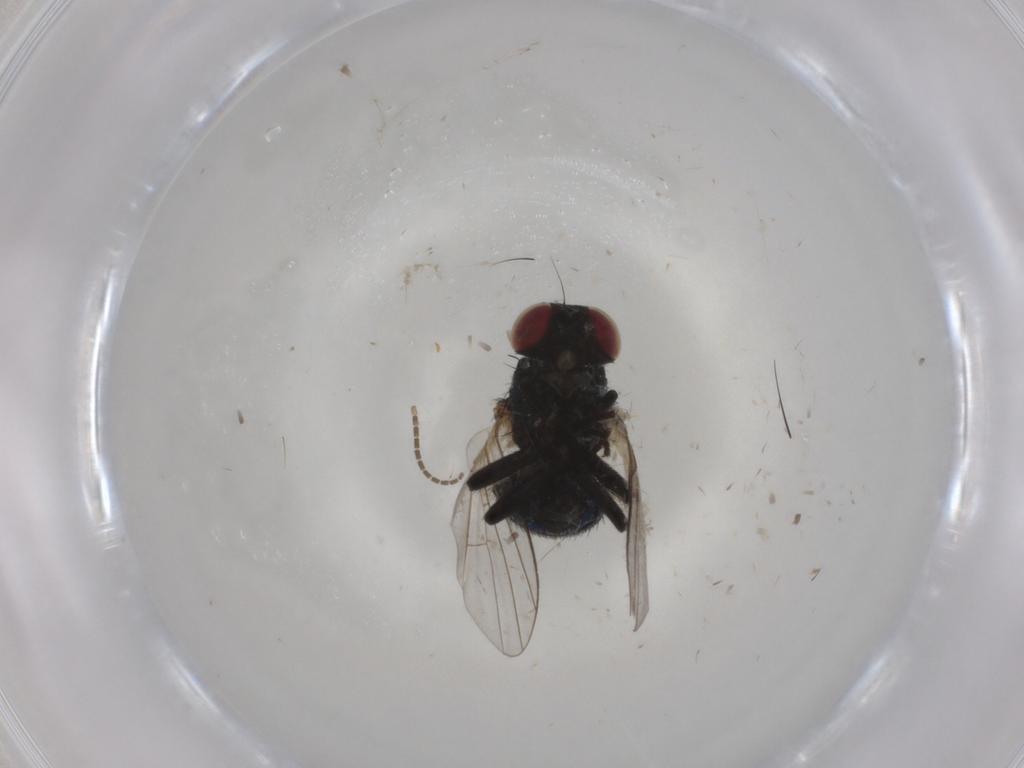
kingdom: Animalia
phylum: Arthropoda
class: Insecta
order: Diptera
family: Agromyzidae
